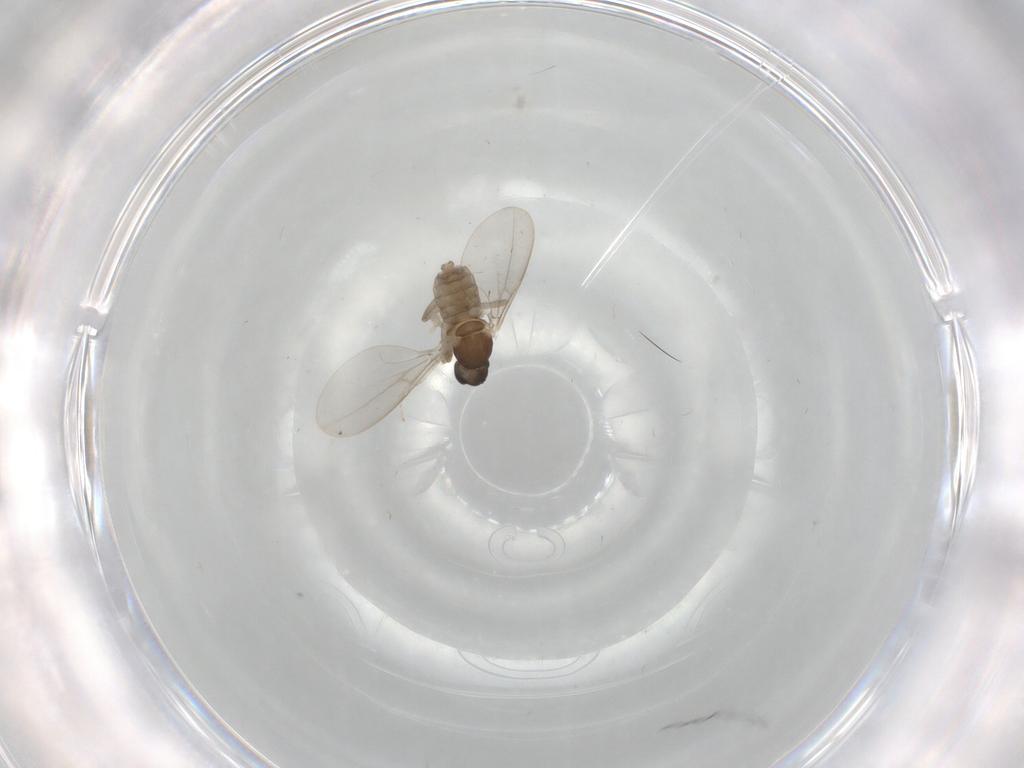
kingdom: Animalia
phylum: Arthropoda
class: Insecta
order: Diptera
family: Cecidomyiidae
